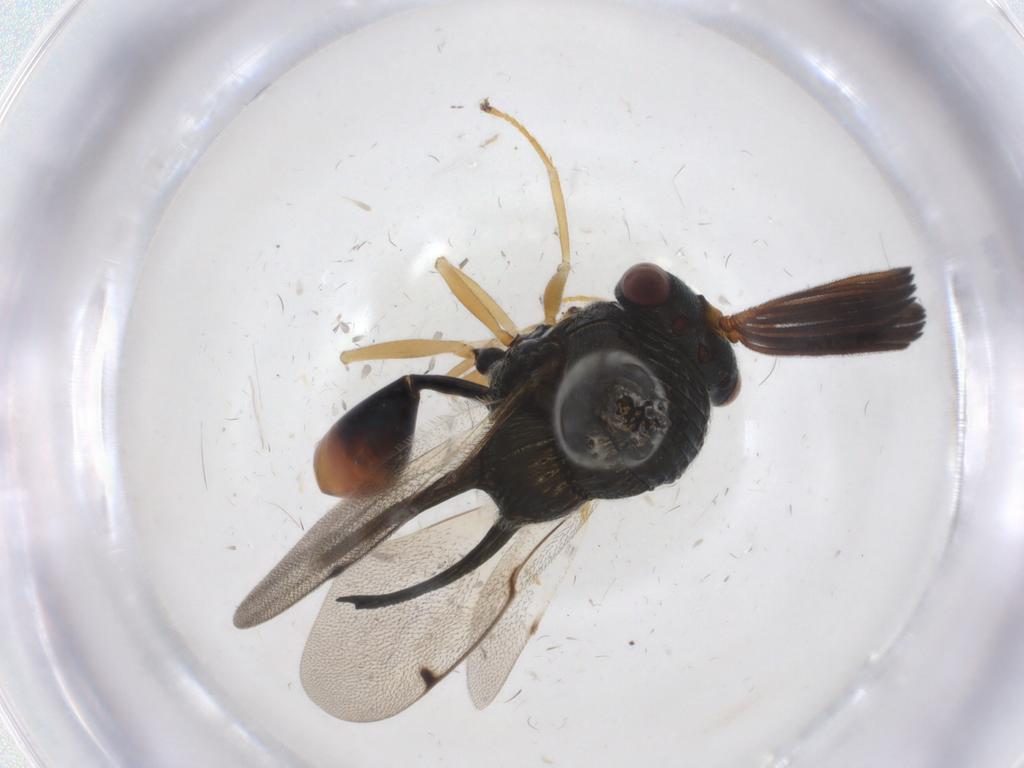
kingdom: Animalia
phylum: Arthropoda
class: Insecta
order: Hymenoptera
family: Scelionidae
